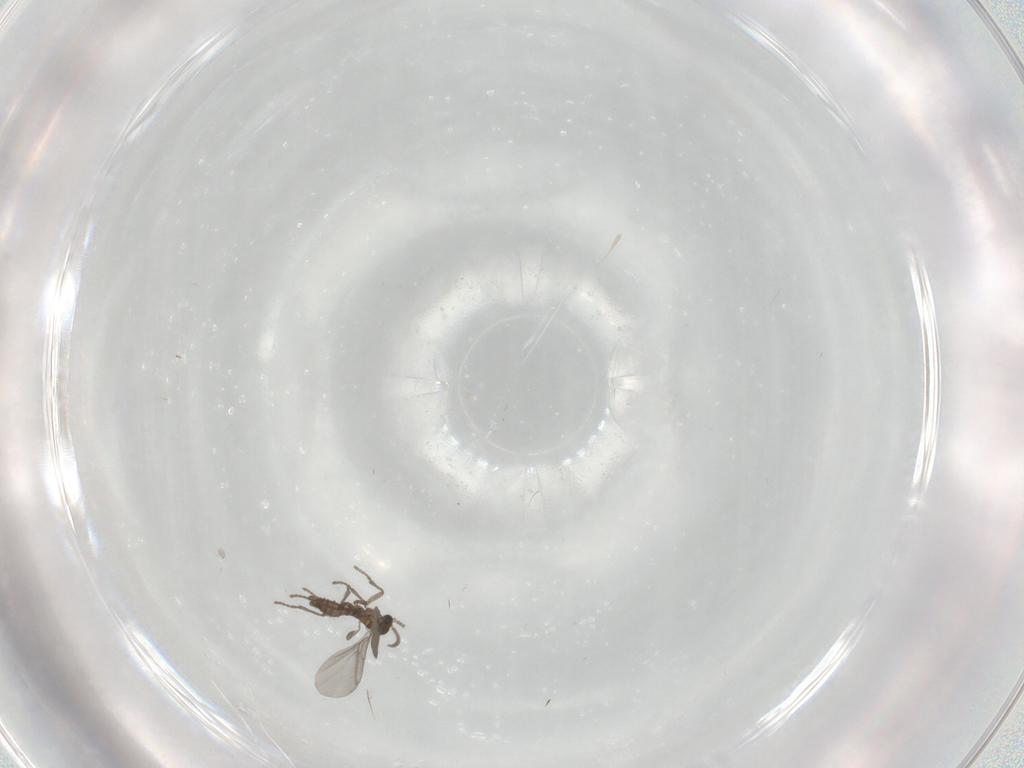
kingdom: Animalia
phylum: Arthropoda
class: Insecta
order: Diptera
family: Sciaridae
